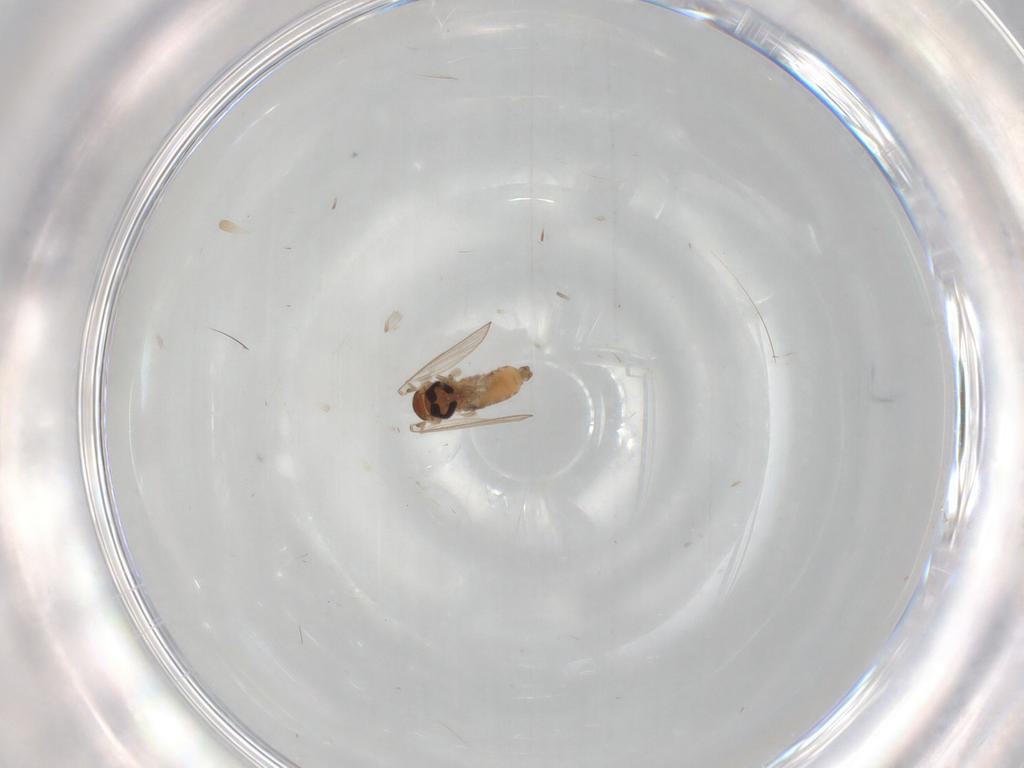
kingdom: Animalia
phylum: Arthropoda
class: Insecta
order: Diptera
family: Psychodidae
